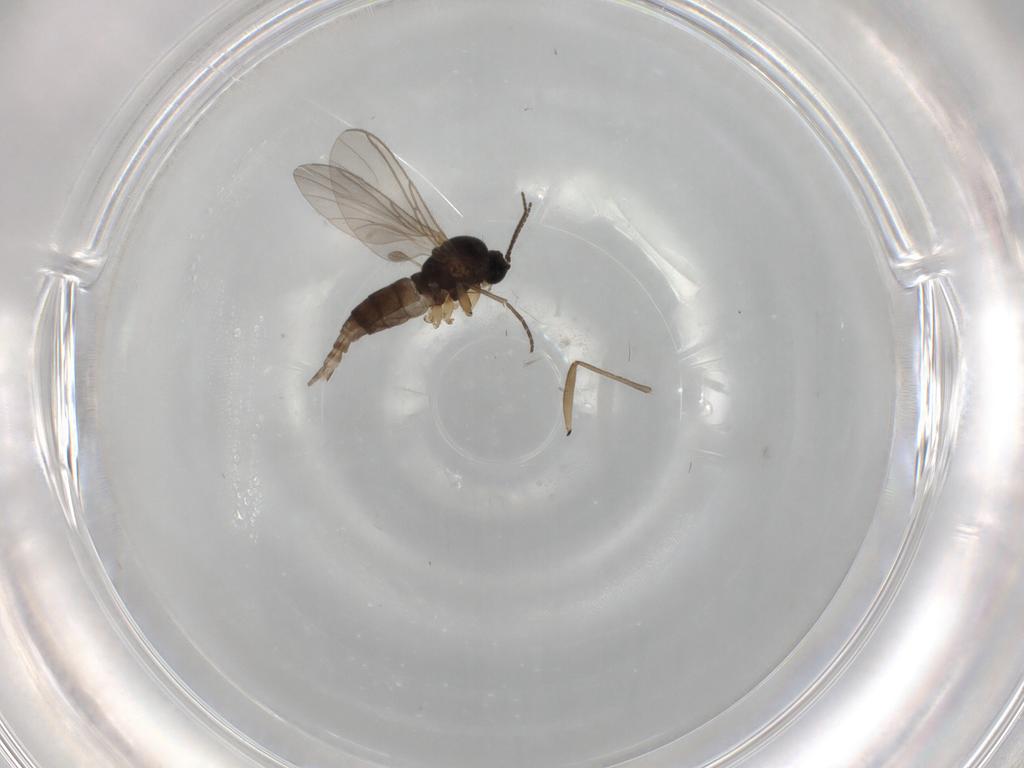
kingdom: Animalia
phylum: Arthropoda
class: Insecta
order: Diptera
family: Sciaridae
